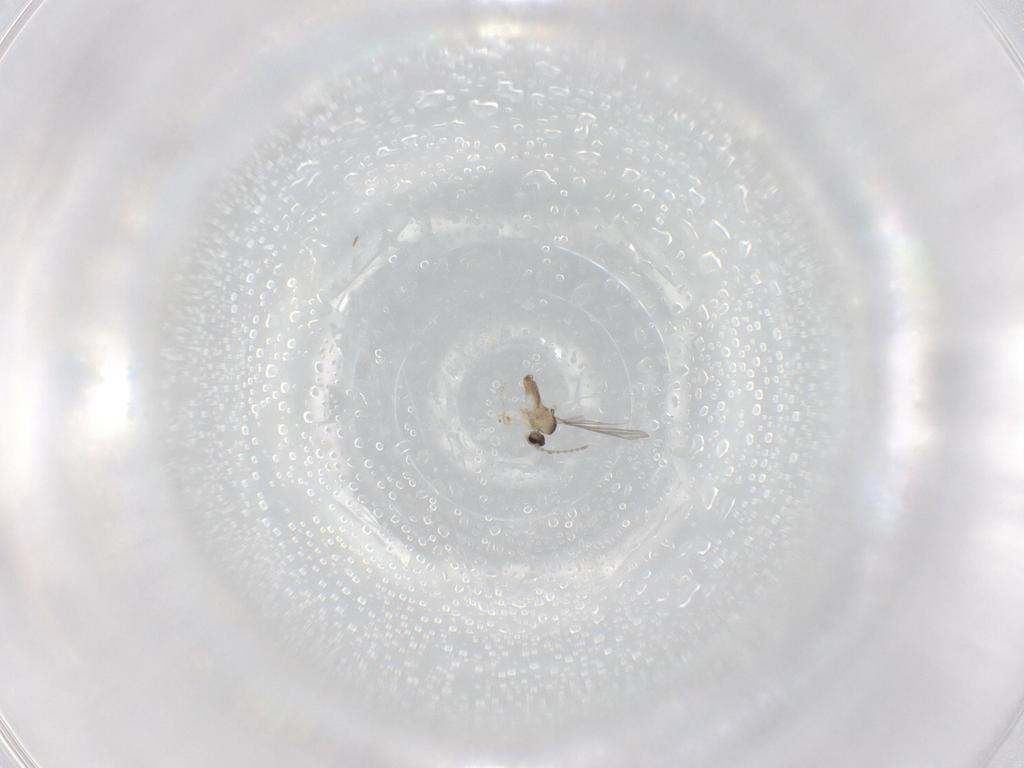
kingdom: Animalia
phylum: Arthropoda
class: Insecta
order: Diptera
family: Cecidomyiidae
